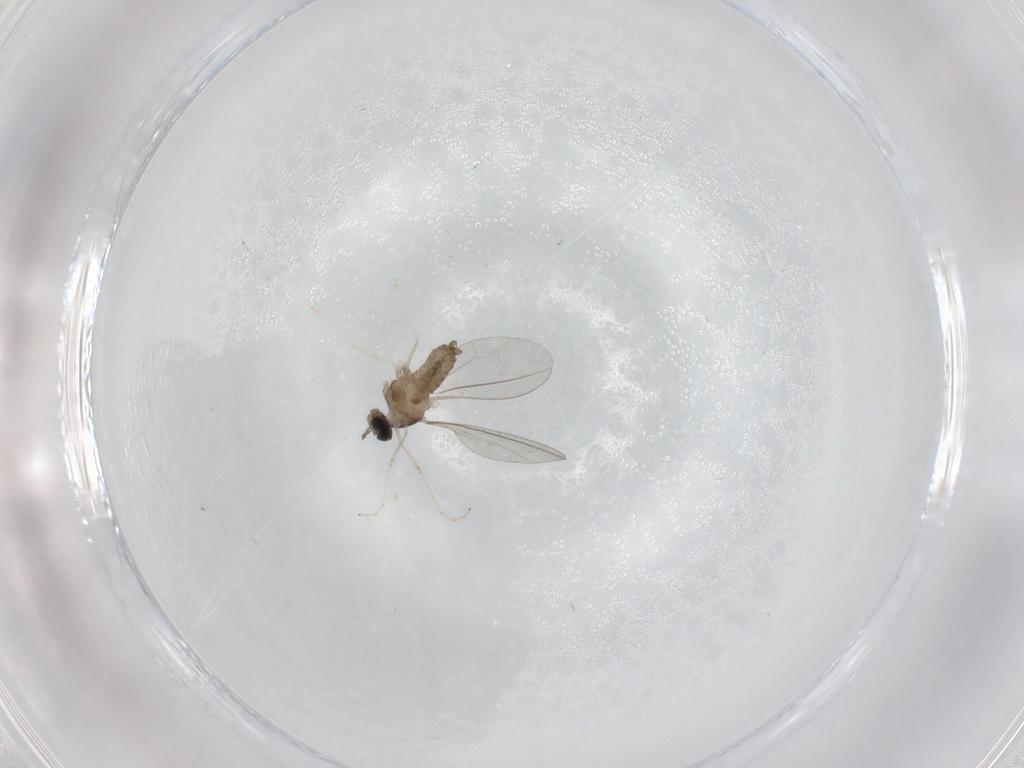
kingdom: Animalia
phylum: Arthropoda
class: Insecta
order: Diptera
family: Cecidomyiidae
